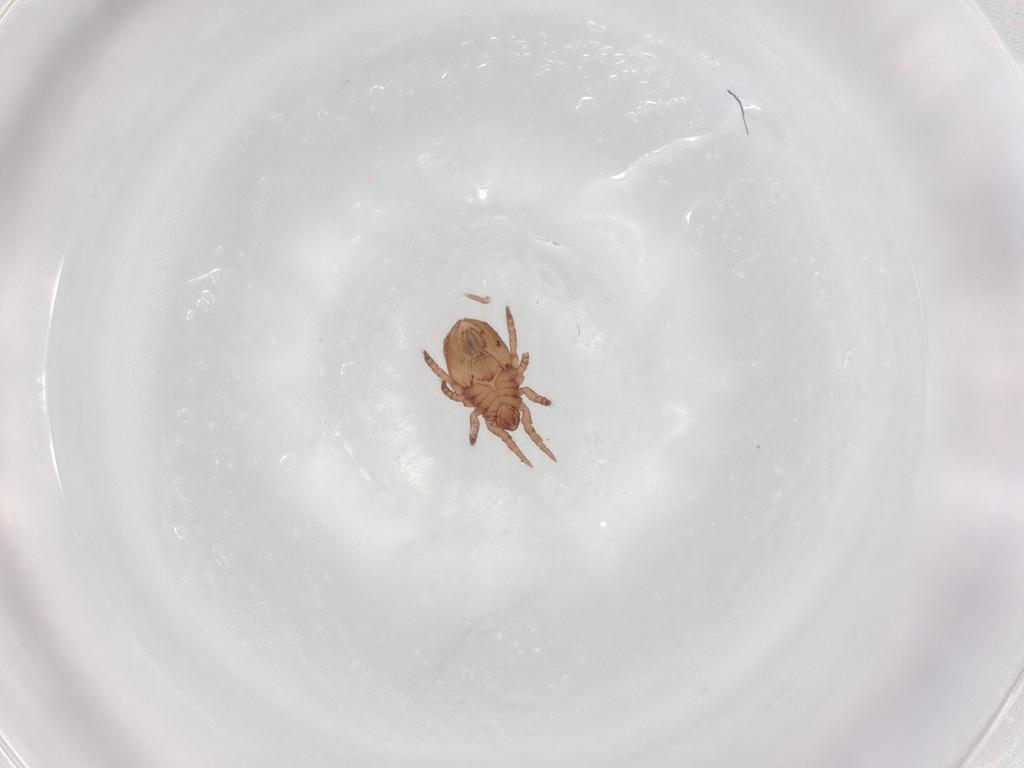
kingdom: Animalia
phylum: Arthropoda
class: Arachnida
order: Sarcoptiformes
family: Nothridae
